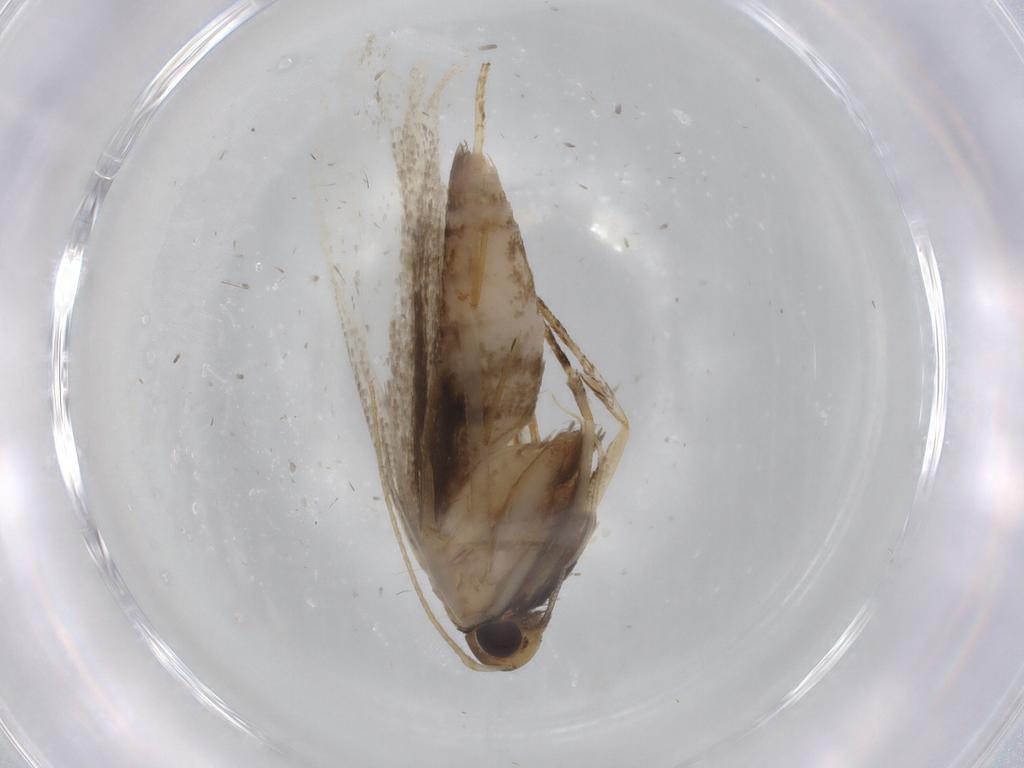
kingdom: Animalia
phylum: Arthropoda
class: Insecta
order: Lepidoptera
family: Gelechiidae
